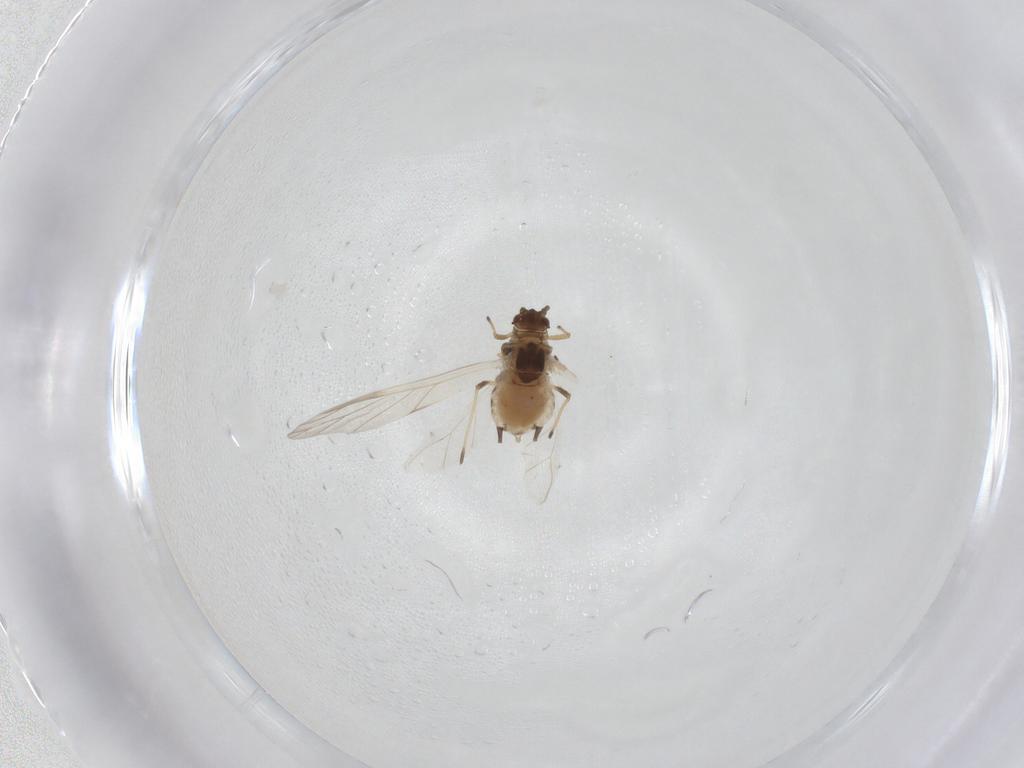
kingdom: Animalia
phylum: Arthropoda
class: Insecta
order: Hemiptera
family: Aphididae
